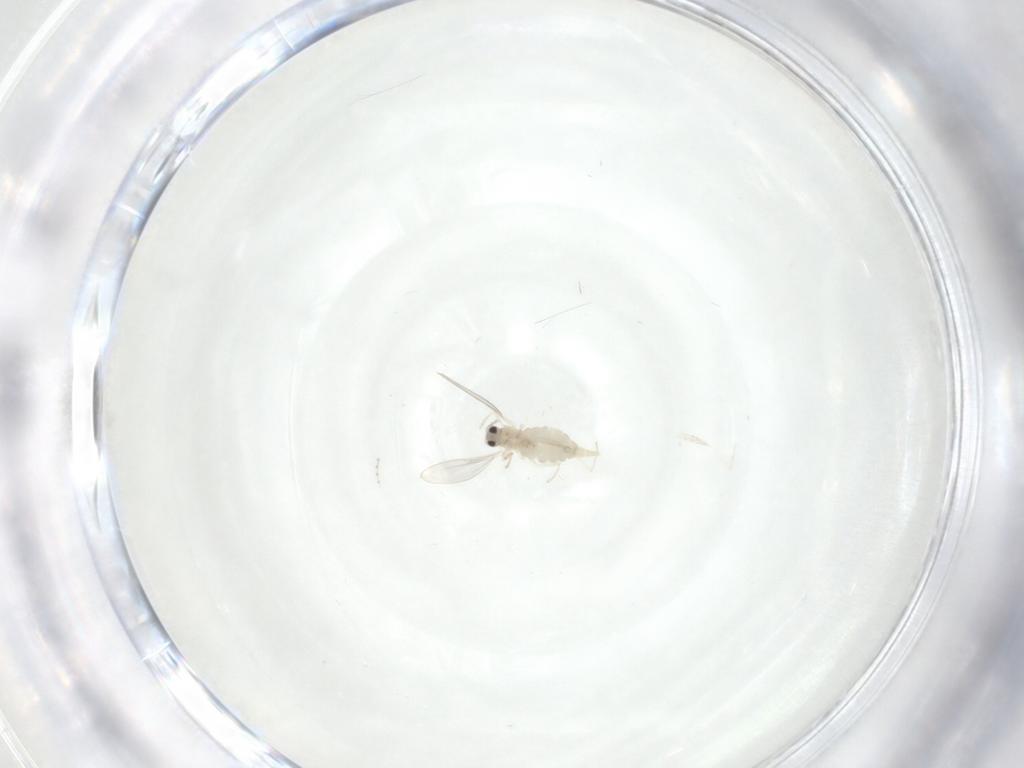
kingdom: Animalia
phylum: Arthropoda
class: Insecta
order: Diptera
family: Cecidomyiidae
